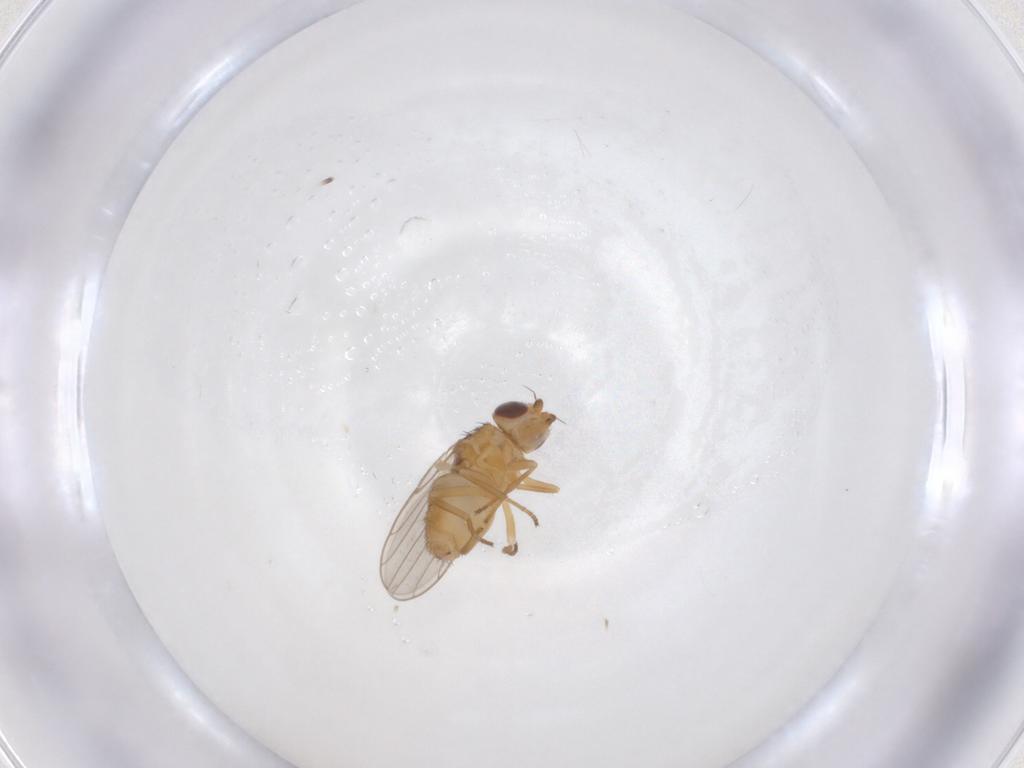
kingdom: Animalia
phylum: Arthropoda
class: Insecta
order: Diptera
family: Chloropidae
